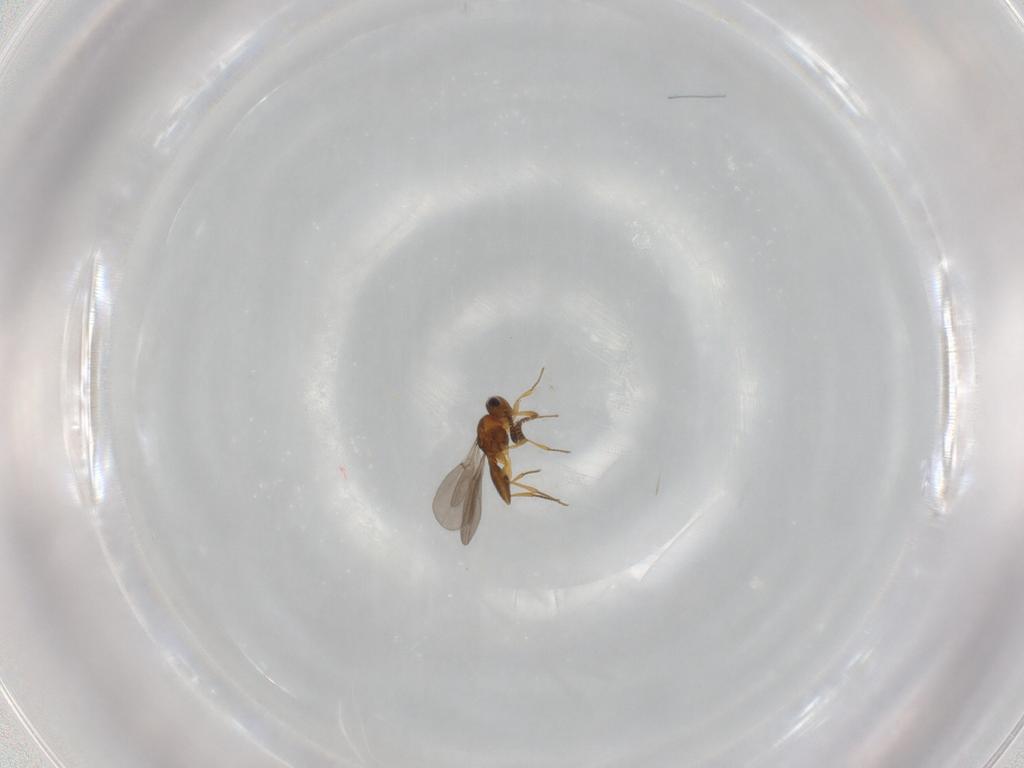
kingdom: Animalia
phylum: Arthropoda
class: Insecta
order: Hymenoptera
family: Platygastridae
